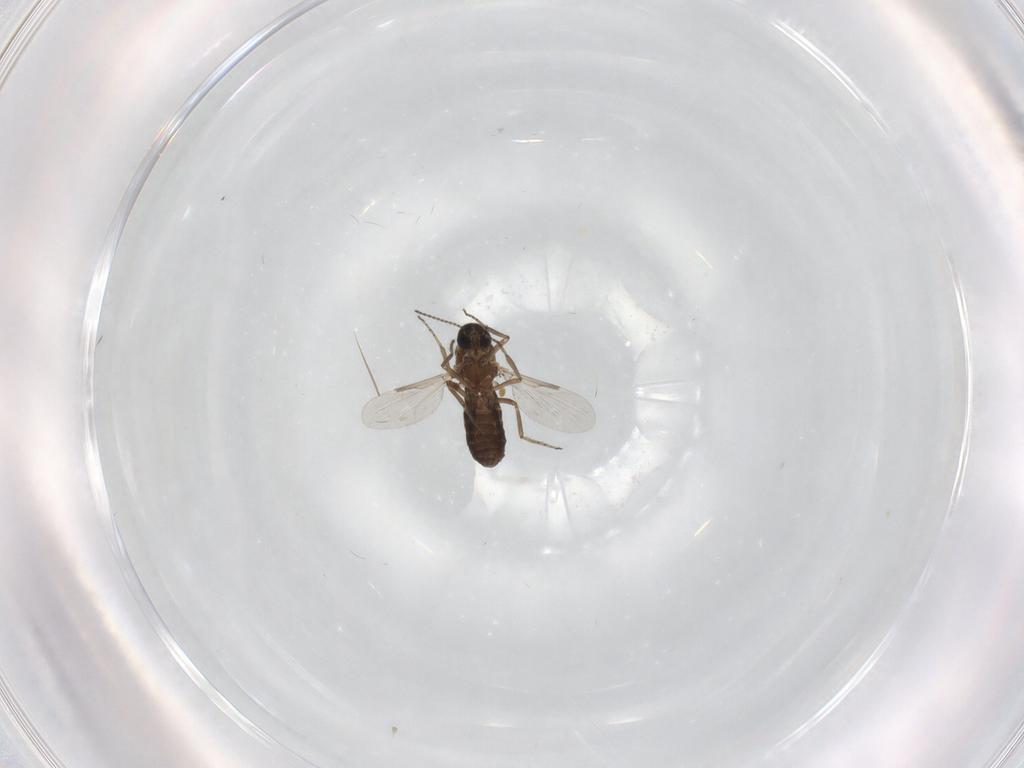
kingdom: Animalia
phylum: Arthropoda
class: Insecta
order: Diptera
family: Ceratopogonidae
